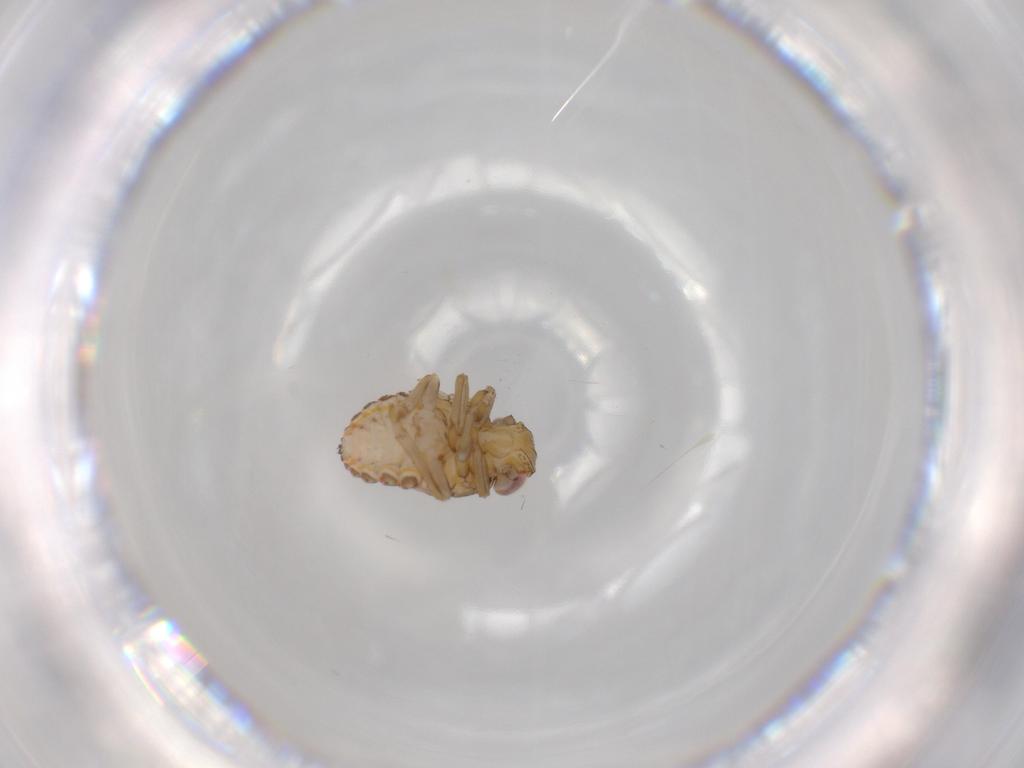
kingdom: Animalia
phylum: Arthropoda
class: Insecta
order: Hemiptera
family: Issidae
